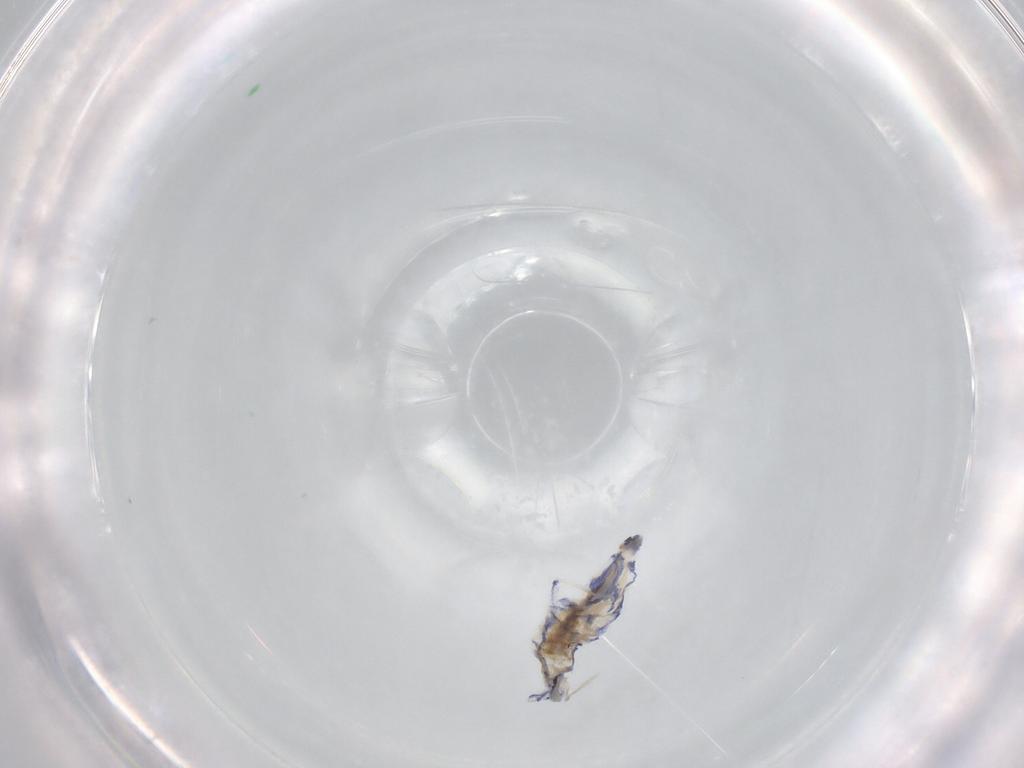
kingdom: Animalia
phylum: Arthropoda
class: Collembola
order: Entomobryomorpha
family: Entomobryidae
